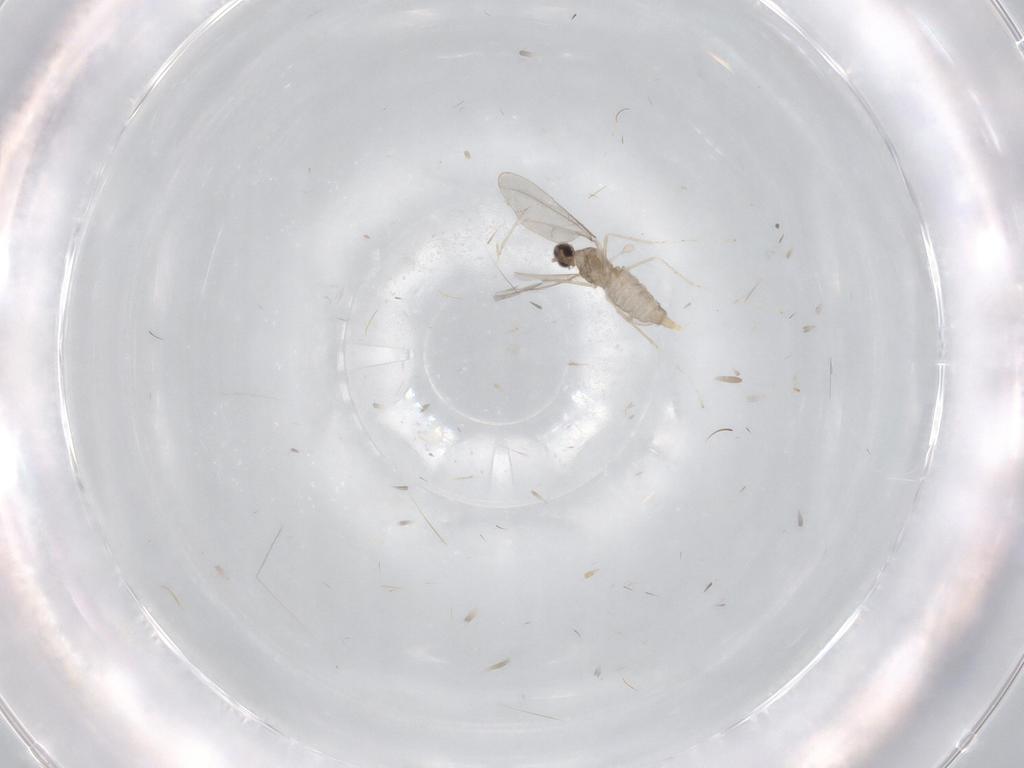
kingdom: Animalia
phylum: Arthropoda
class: Insecta
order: Diptera
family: Cecidomyiidae
